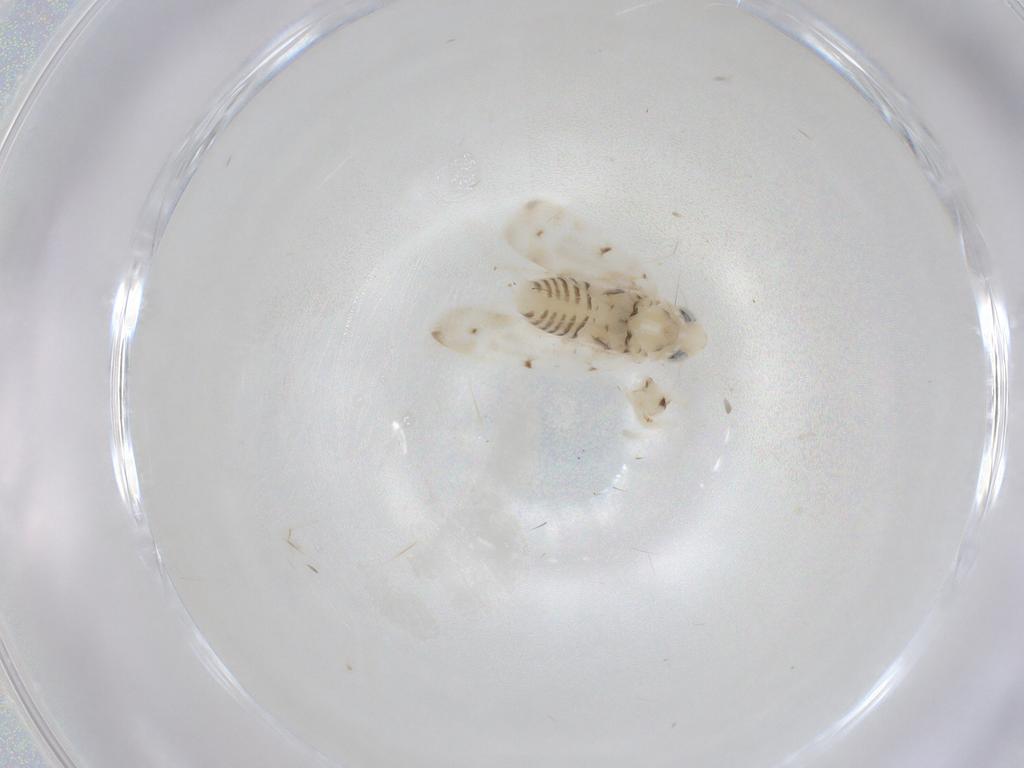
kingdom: Animalia
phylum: Arthropoda
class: Insecta
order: Hemiptera
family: Cicadellidae
